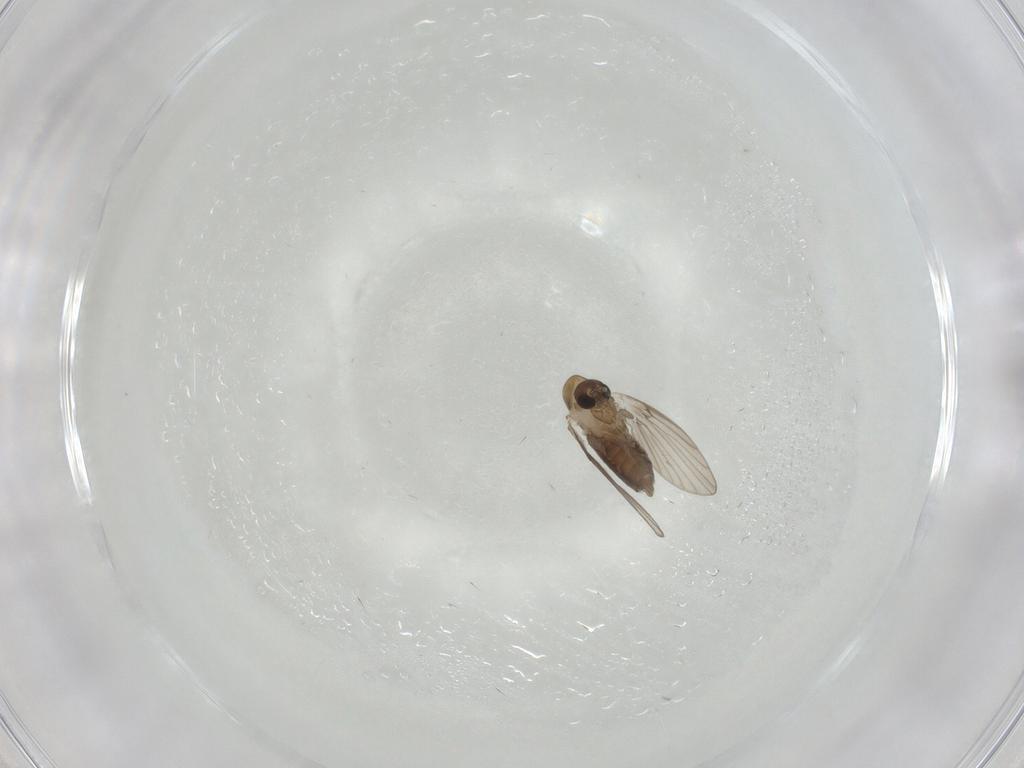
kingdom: Animalia
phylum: Arthropoda
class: Insecta
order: Diptera
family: Psychodidae
